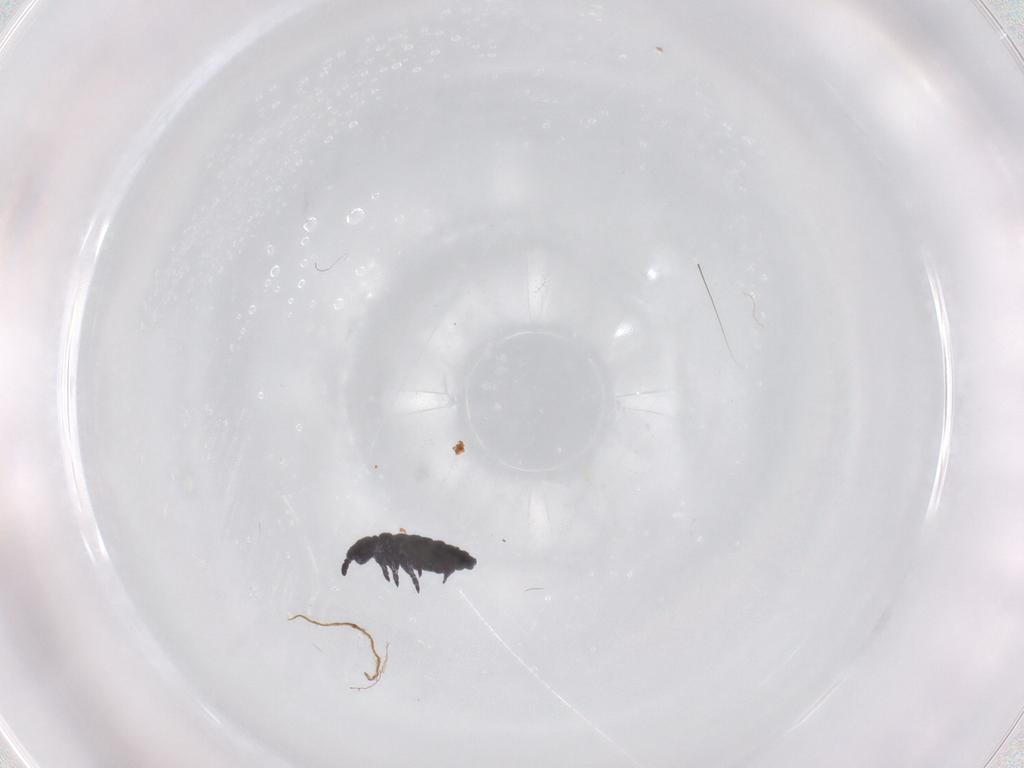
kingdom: Animalia
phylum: Arthropoda
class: Collembola
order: Poduromorpha
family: Hypogastruridae
